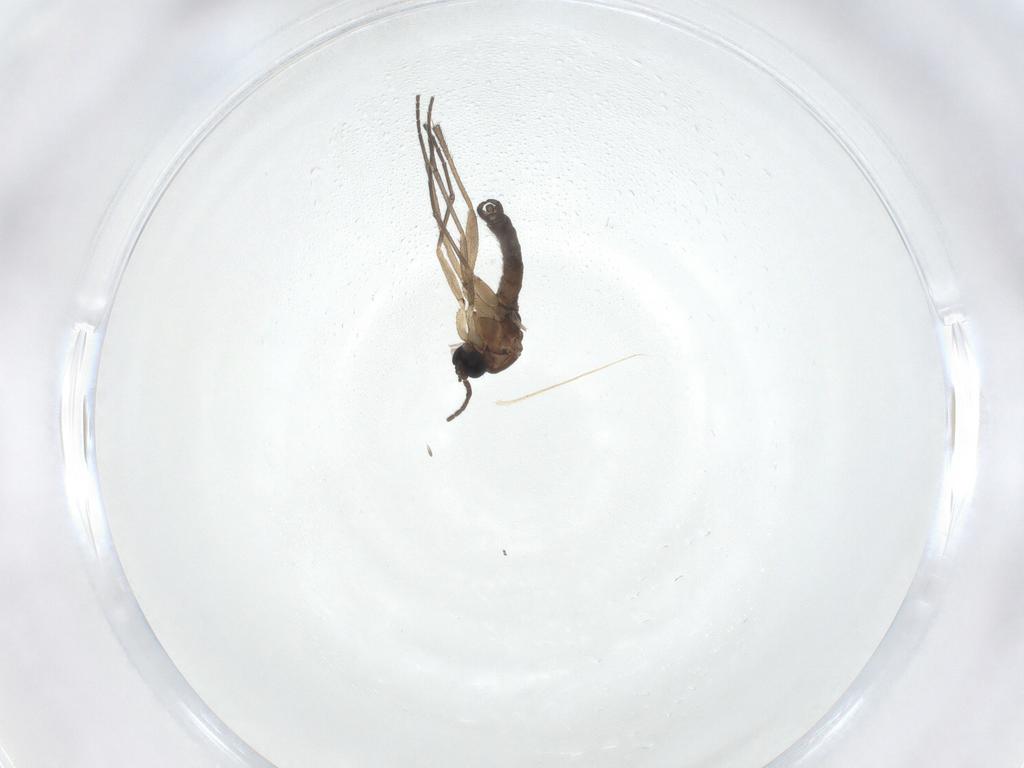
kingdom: Animalia
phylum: Arthropoda
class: Insecta
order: Diptera
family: Sciaridae
